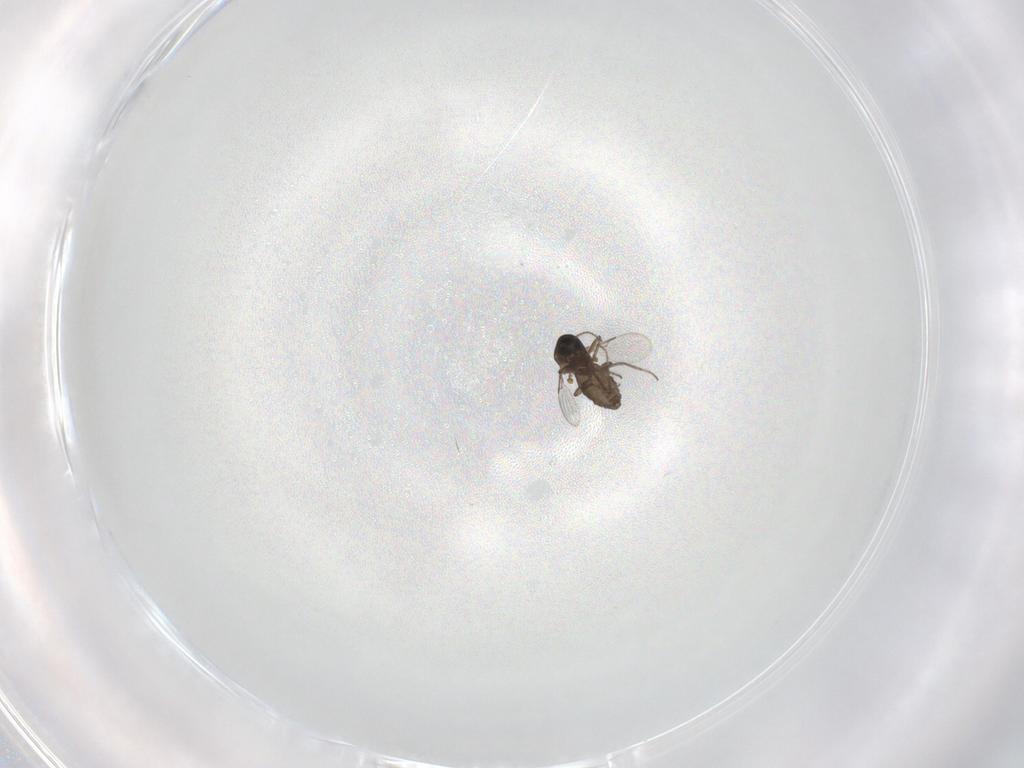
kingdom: Animalia
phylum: Arthropoda
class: Insecta
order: Diptera
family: Ceratopogonidae
